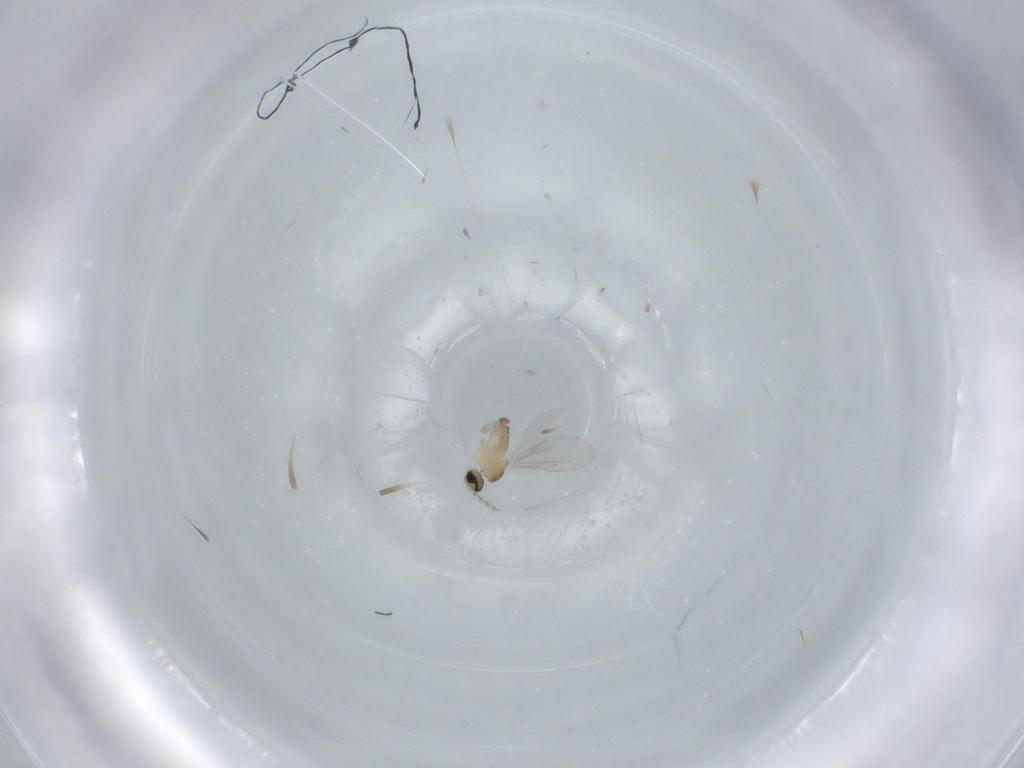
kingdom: Animalia
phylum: Arthropoda
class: Insecta
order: Diptera
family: Cecidomyiidae
